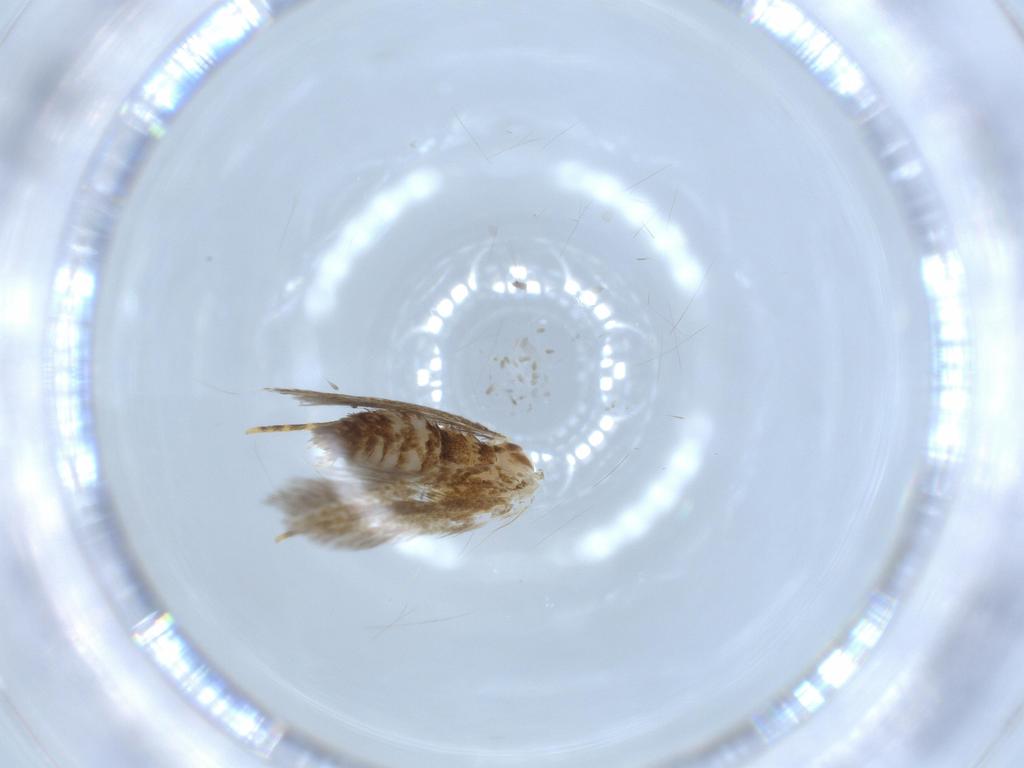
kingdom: Animalia
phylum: Arthropoda
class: Insecta
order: Lepidoptera
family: Tineidae
